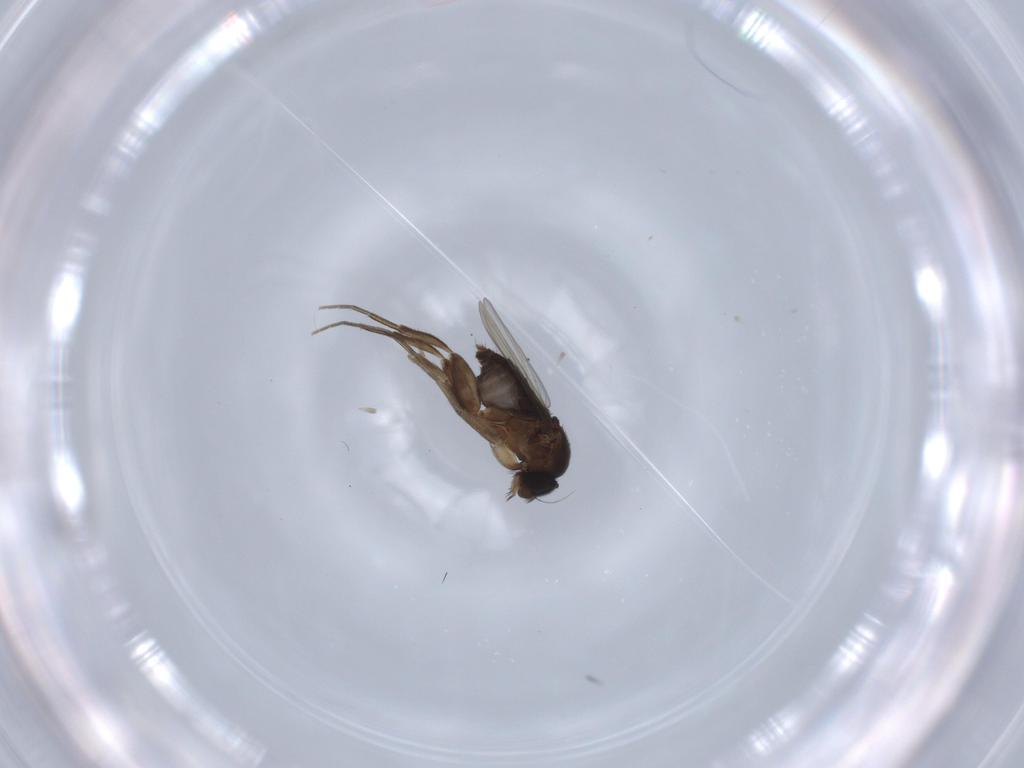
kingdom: Animalia
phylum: Arthropoda
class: Insecta
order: Diptera
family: Phoridae
